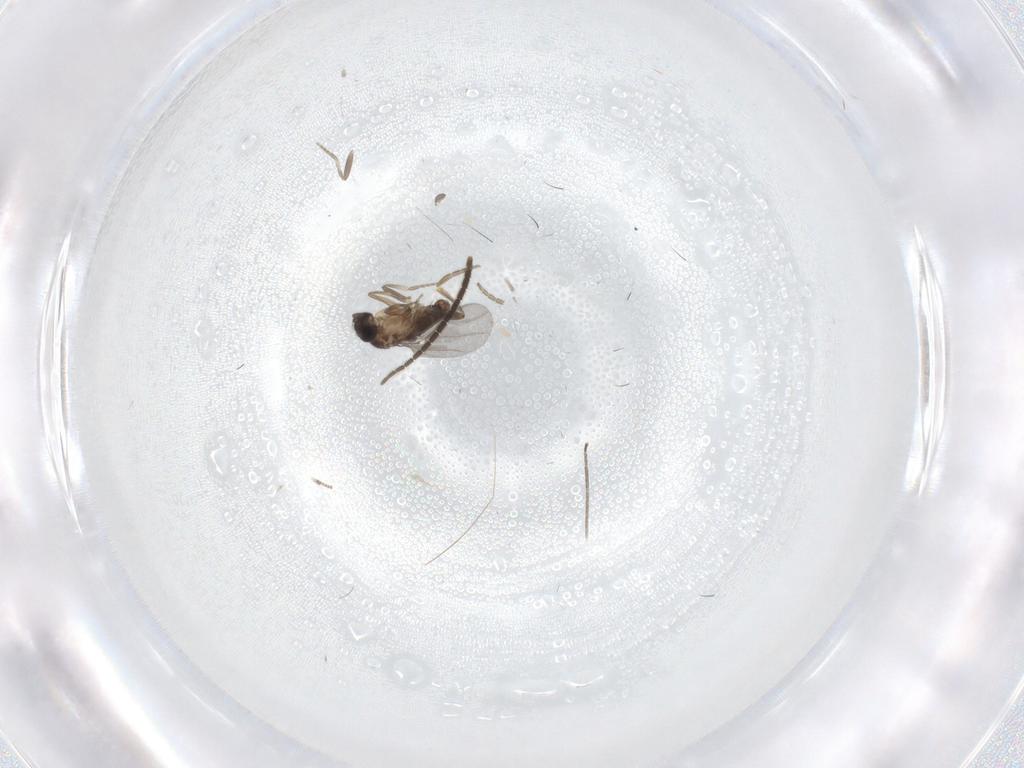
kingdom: Animalia
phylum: Arthropoda
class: Insecta
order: Diptera
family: Sciaridae
